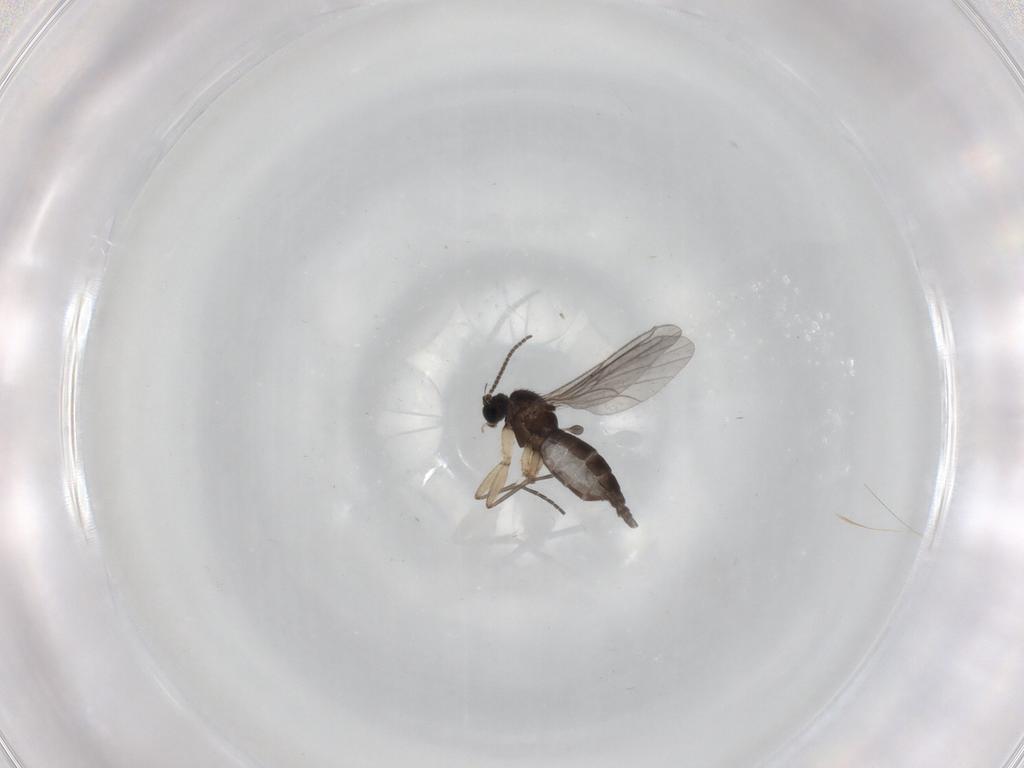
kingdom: Animalia
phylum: Arthropoda
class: Insecta
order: Diptera
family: Sciaridae
